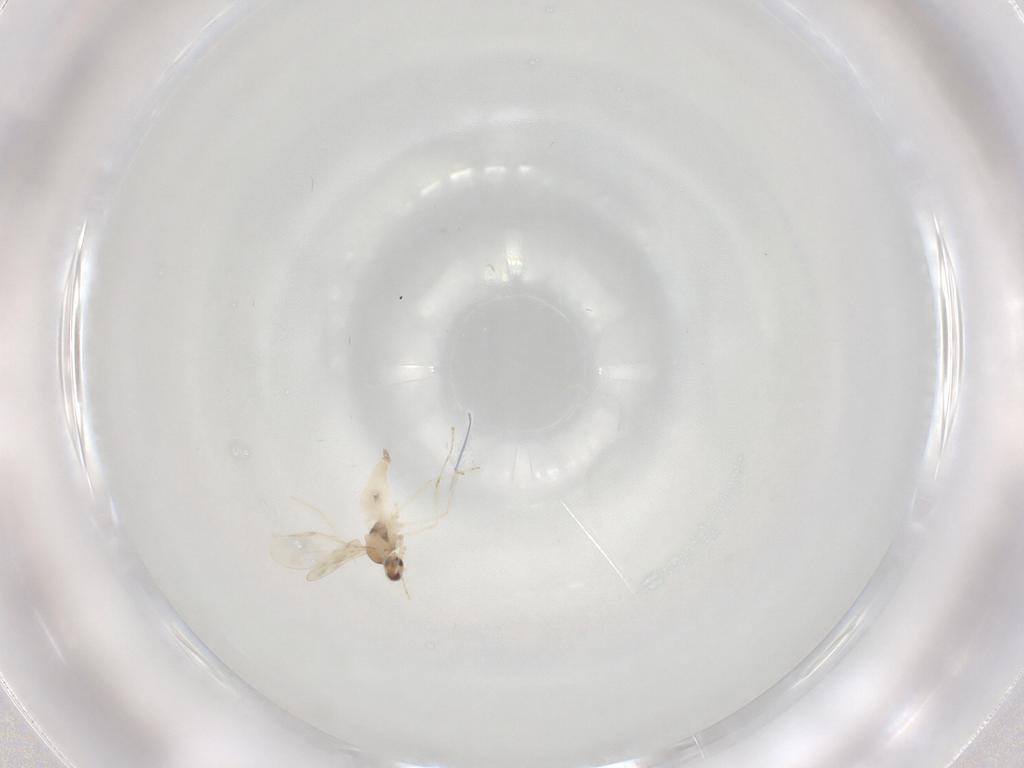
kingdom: Animalia
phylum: Arthropoda
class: Insecta
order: Diptera
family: Cecidomyiidae
